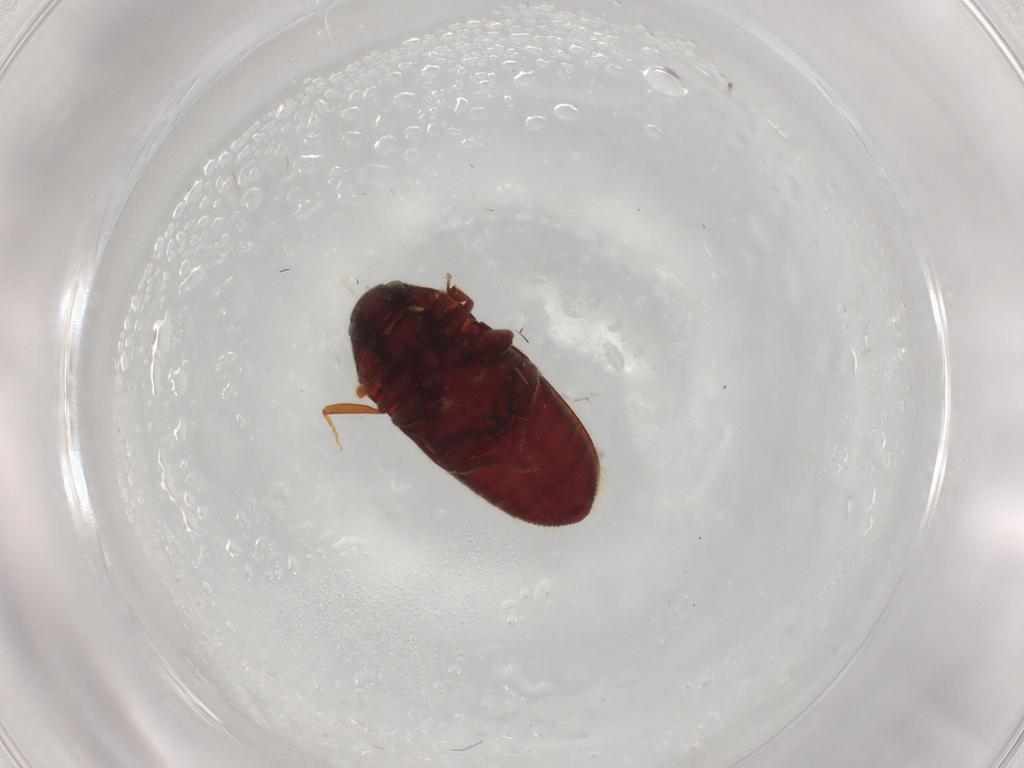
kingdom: Animalia
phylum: Arthropoda
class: Insecta
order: Coleoptera
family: Throscidae
